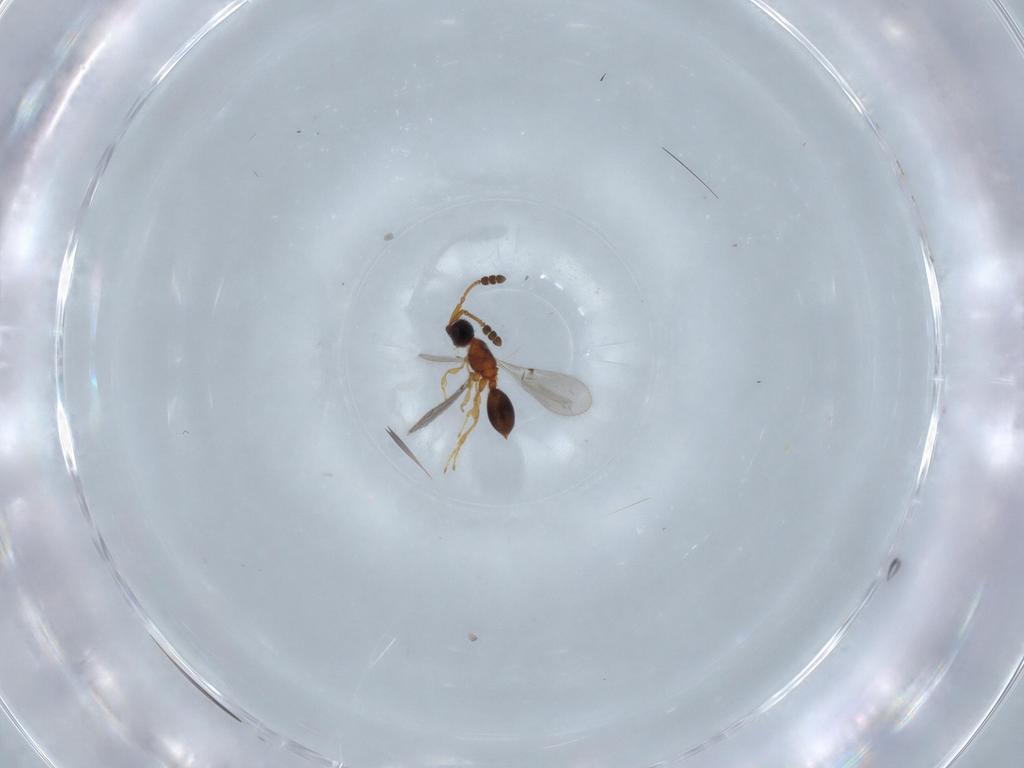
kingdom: Animalia
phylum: Arthropoda
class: Insecta
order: Hymenoptera
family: Diapriidae
